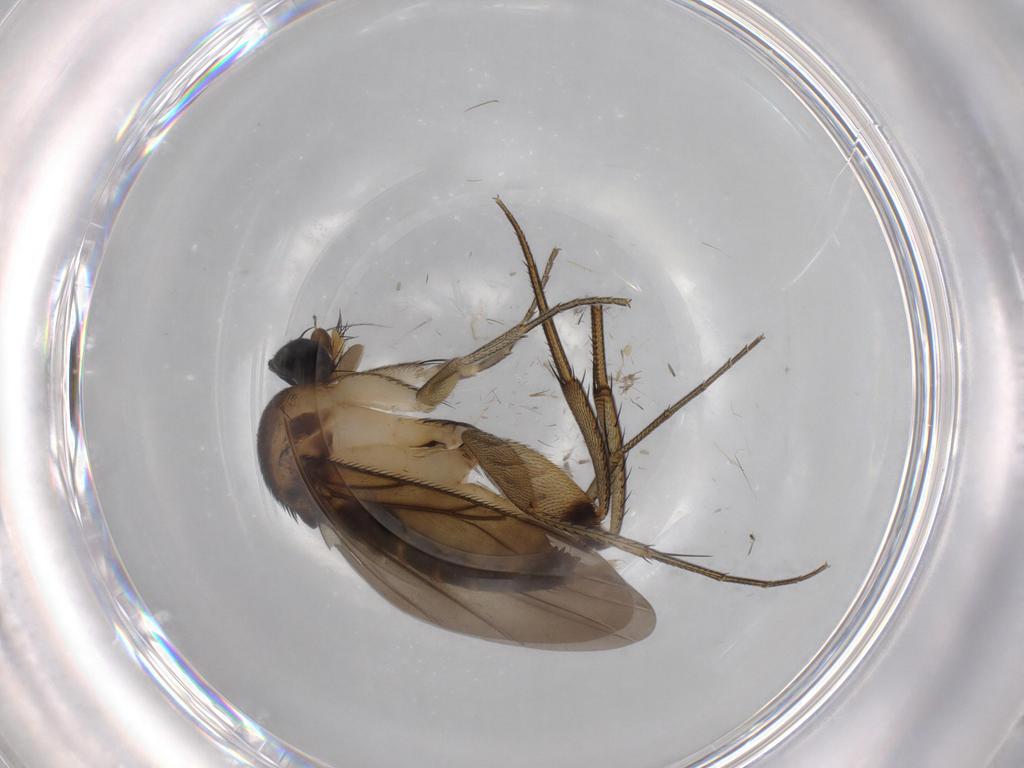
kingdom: Animalia
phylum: Arthropoda
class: Insecta
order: Diptera
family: Phoridae
